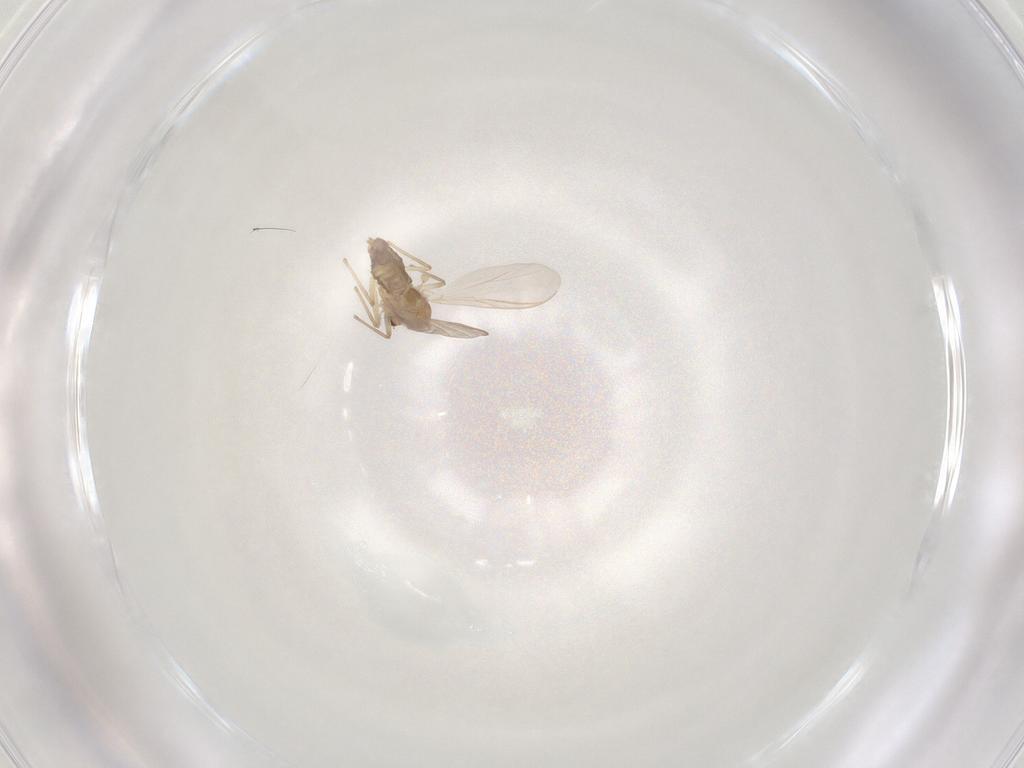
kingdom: Animalia
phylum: Arthropoda
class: Insecta
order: Diptera
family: Chironomidae
